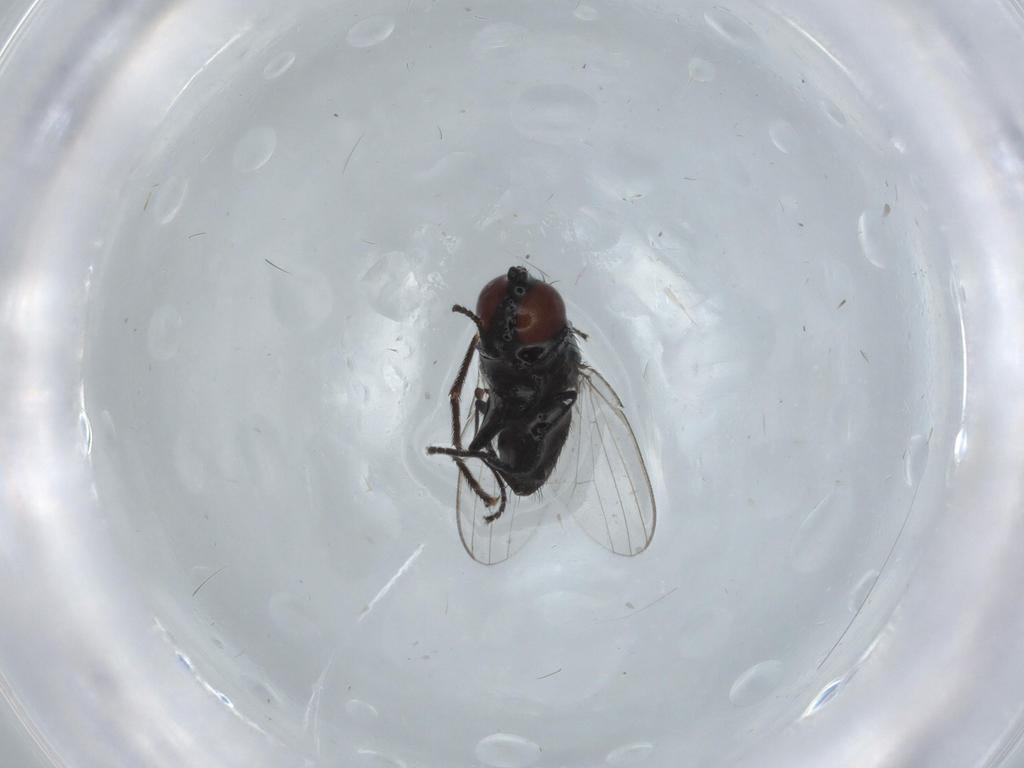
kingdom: Animalia
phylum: Arthropoda
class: Insecta
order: Diptera
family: Milichiidae
